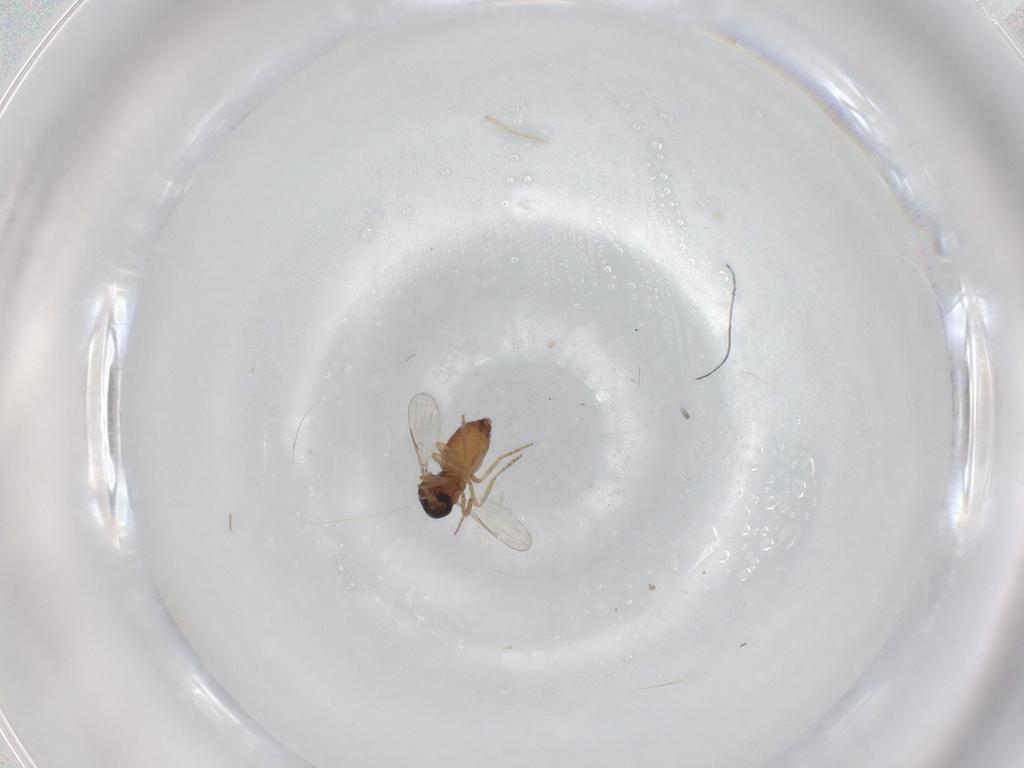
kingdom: Animalia
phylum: Arthropoda
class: Insecta
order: Diptera
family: Ceratopogonidae
